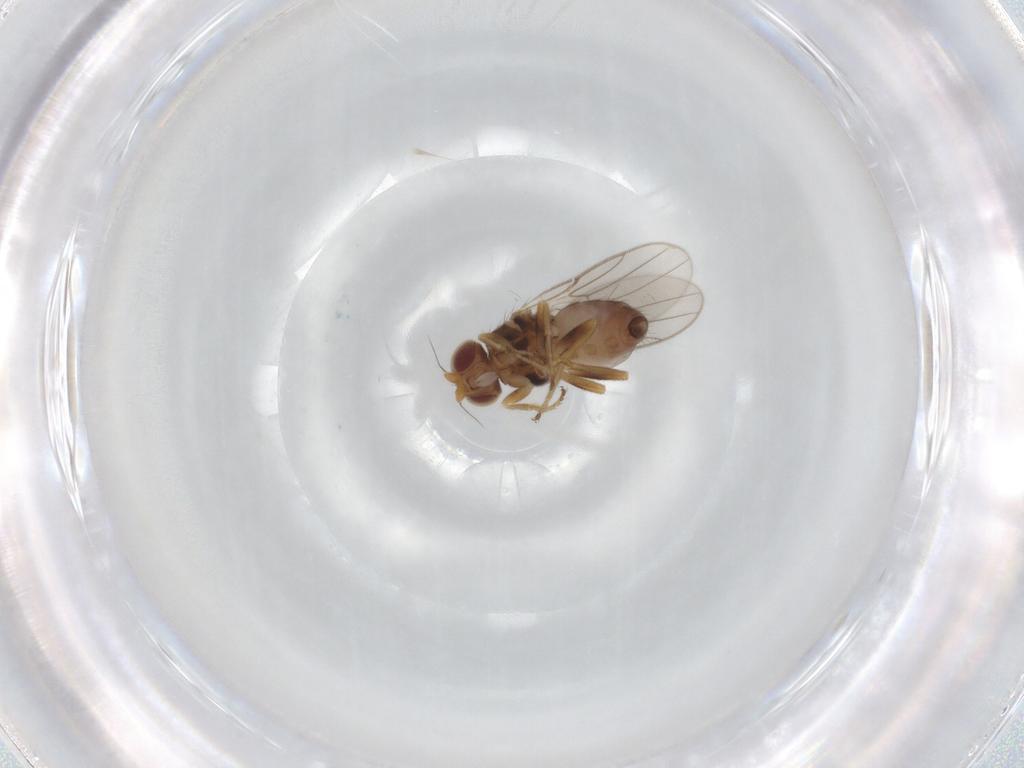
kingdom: Animalia
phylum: Arthropoda
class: Insecta
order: Diptera
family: Chloropidae
